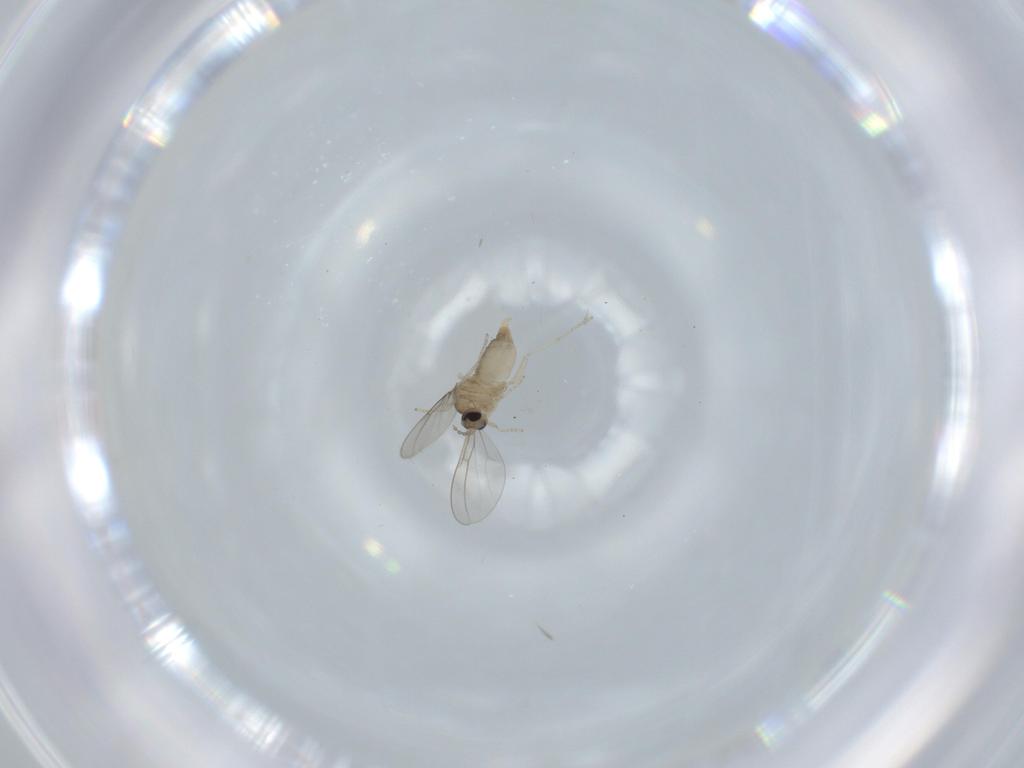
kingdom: Animalia
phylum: Arthropoda
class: Insecta
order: Diptera
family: Cecidomyiidae
